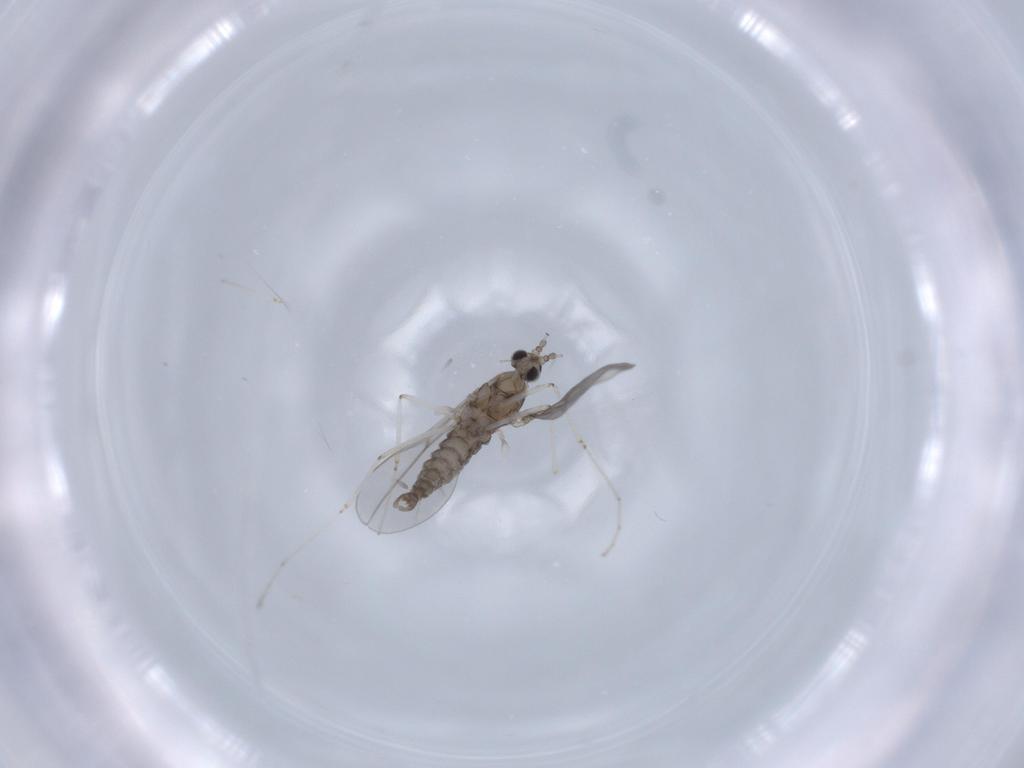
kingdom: Animalia
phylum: Arthropoda
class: Insecta
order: Diptera
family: Cecidomyiidae
